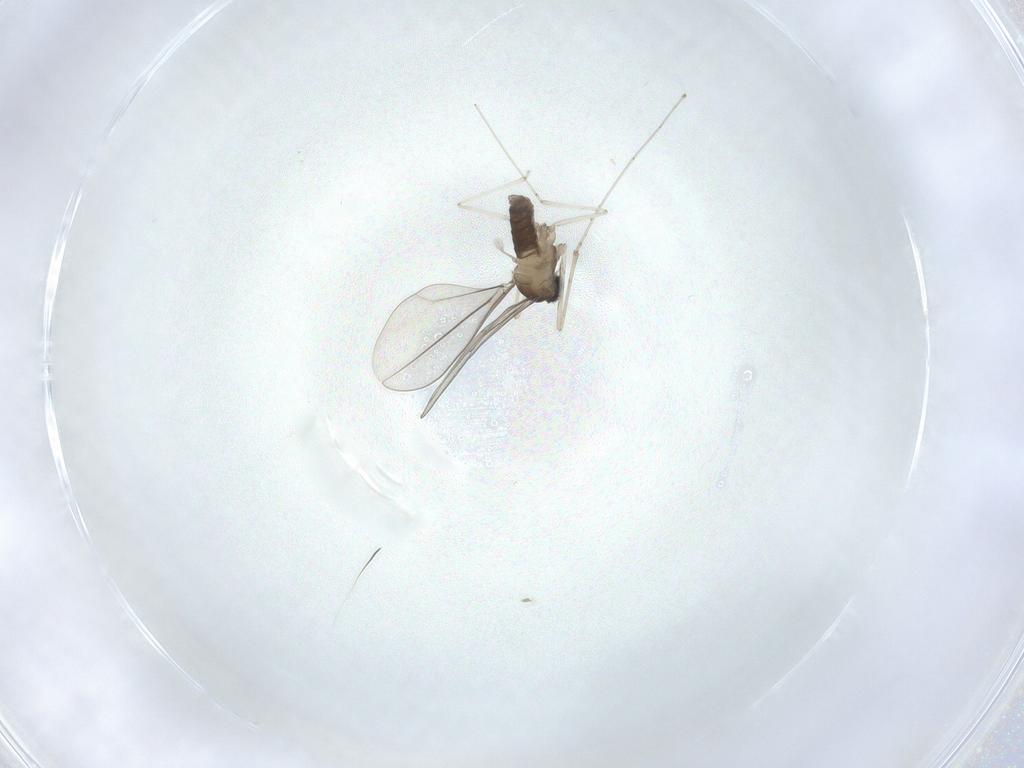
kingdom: Animalia
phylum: Arthropoda
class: Insecta
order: Diptera
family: Cecidomyiidae
